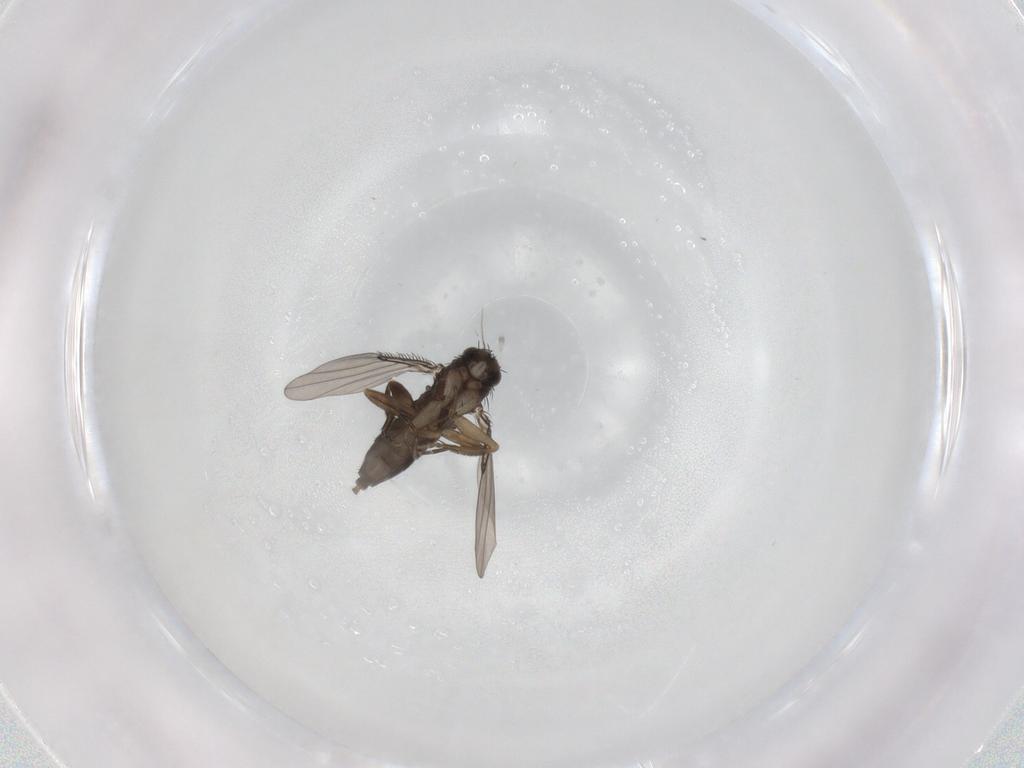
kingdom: Animalia
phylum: Arthropoda
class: Insecta
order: Diptera
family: Phoridae
